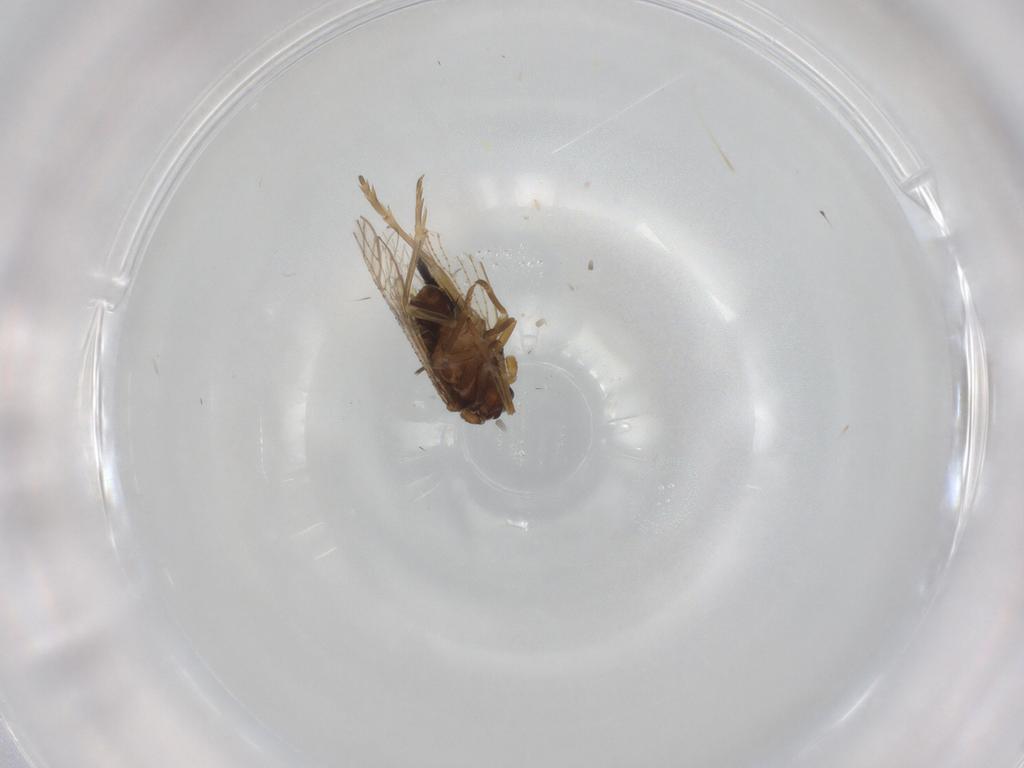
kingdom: Animalia
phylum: Arthropoda
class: Insecta
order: Hemiptera
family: Delphacidae
